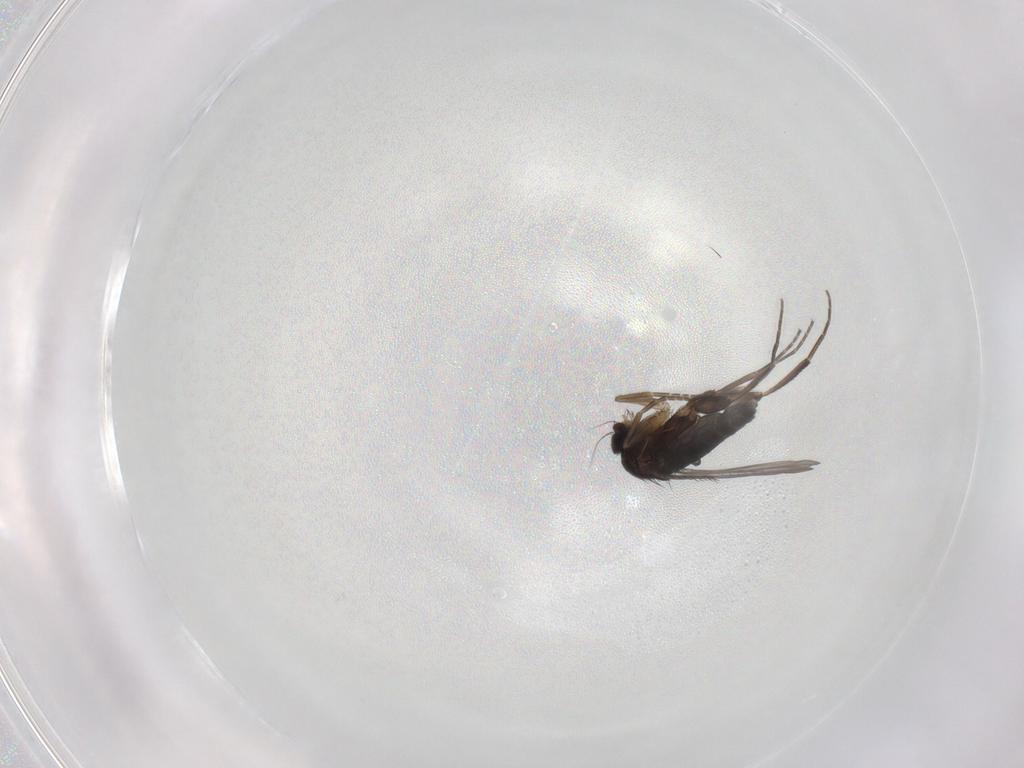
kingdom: Animalia
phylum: Arthropoda
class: Insecta
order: Diptera
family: Phoridae
